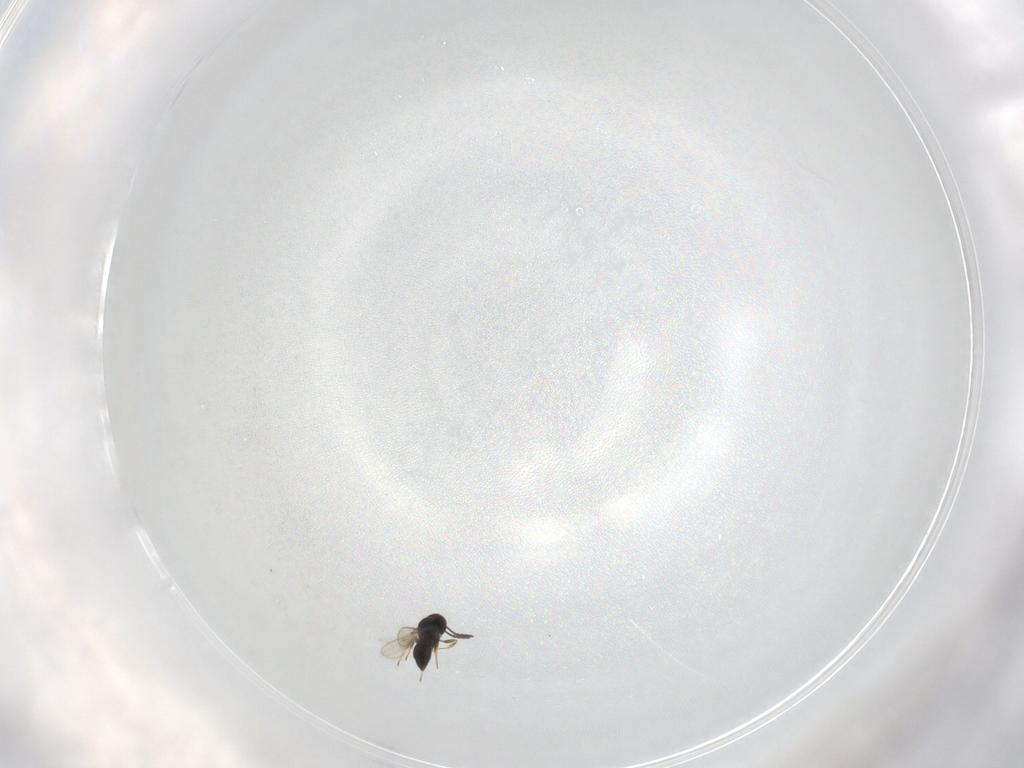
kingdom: Animalia
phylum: Arthropoda
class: Insecta
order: Hymenoptera
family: Scelionidae
